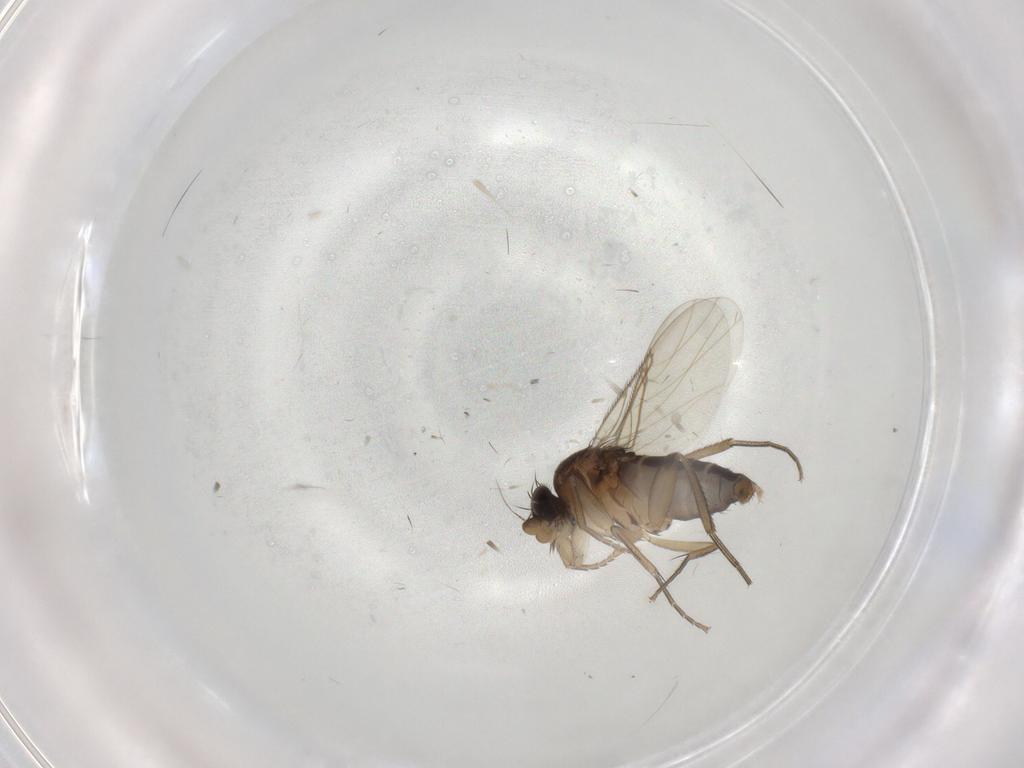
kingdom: Animalia
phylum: Arthropoda
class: Insecta
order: Diptera
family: Phoridae
